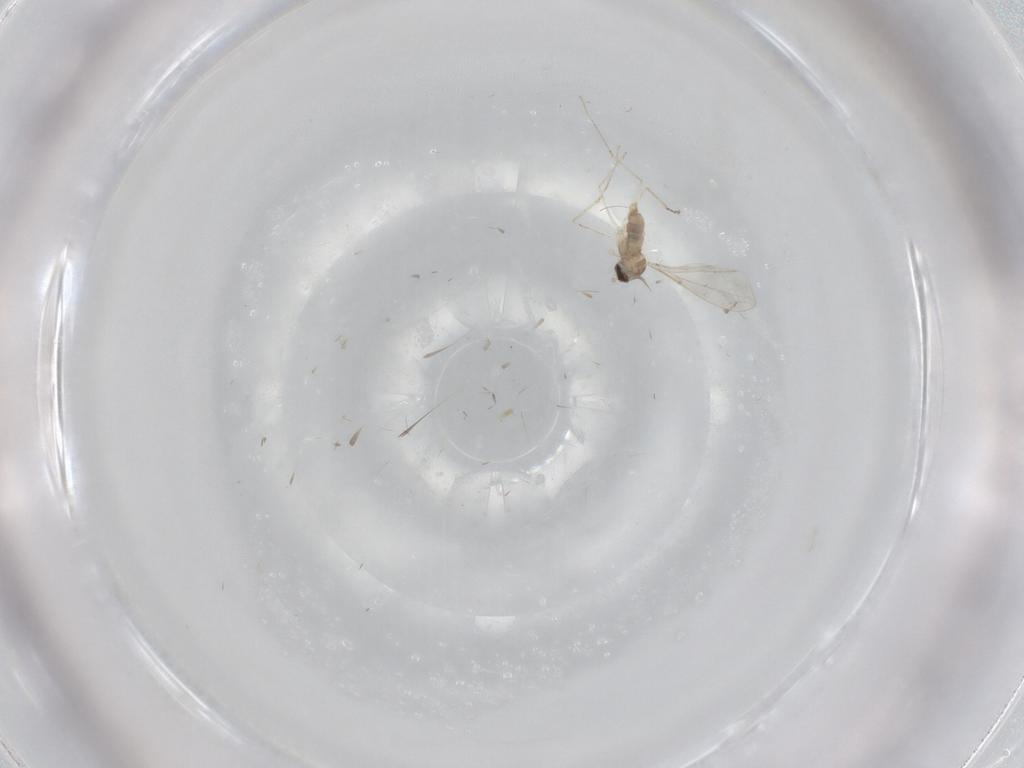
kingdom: Animalia
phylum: Arthropoda
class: Insecta
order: Diptera
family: Cecidomyiidae
